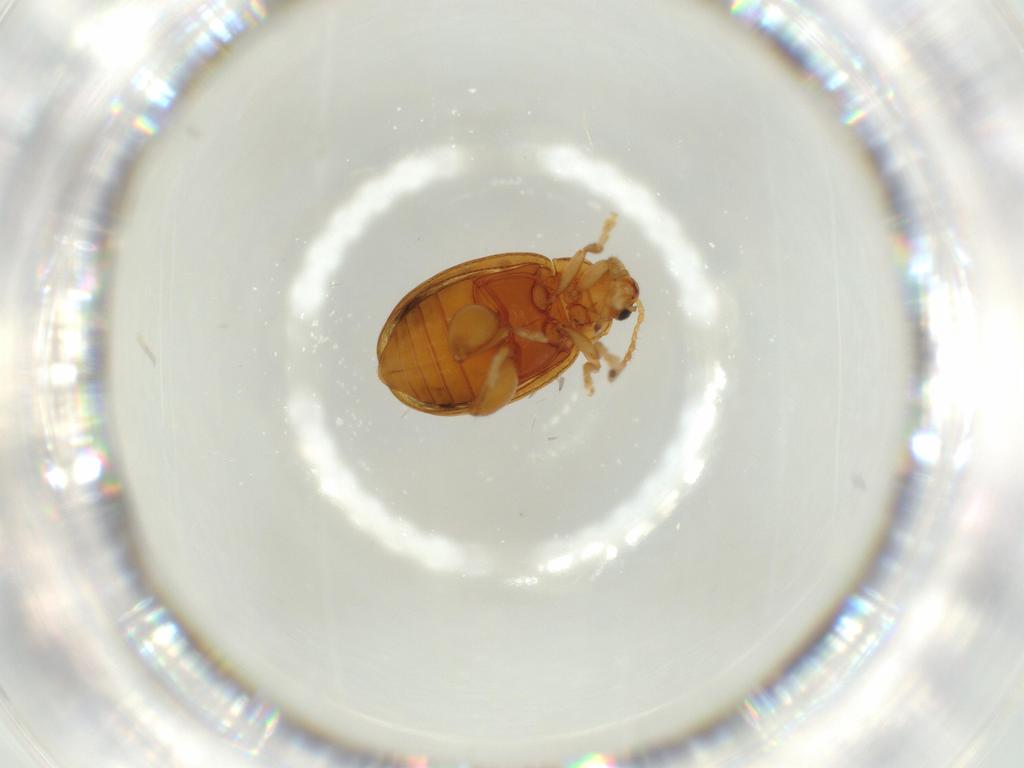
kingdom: Animalia
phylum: Arthropoda
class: Insecta
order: Coleoptera
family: Chrysomelidae
